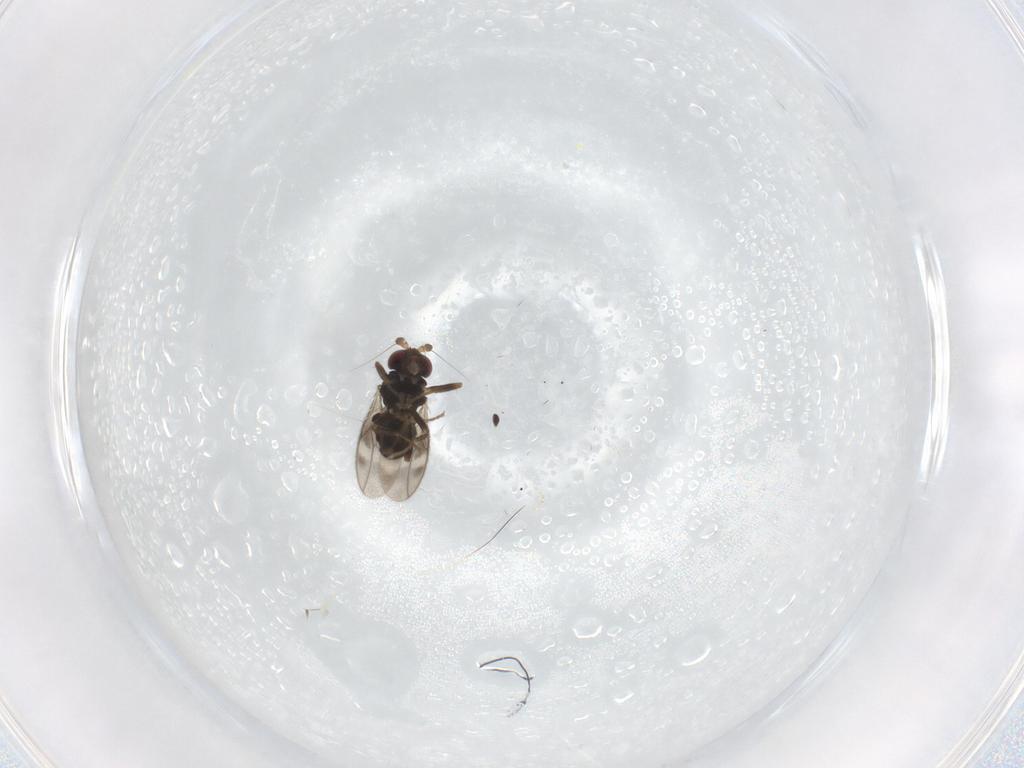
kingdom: Animalia
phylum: Arthropoda
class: Insecta
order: Diptera
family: Sphaeroceridae
